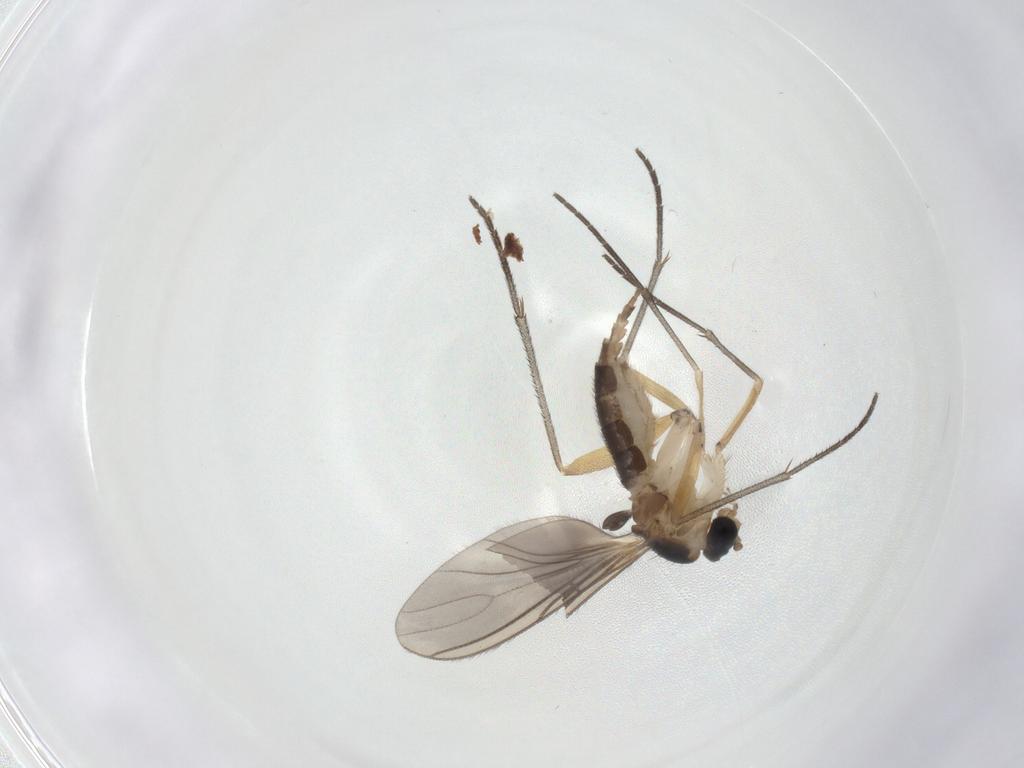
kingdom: Animalia
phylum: Arthropoda
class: Insecta
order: Diptera
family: Sciaridae
